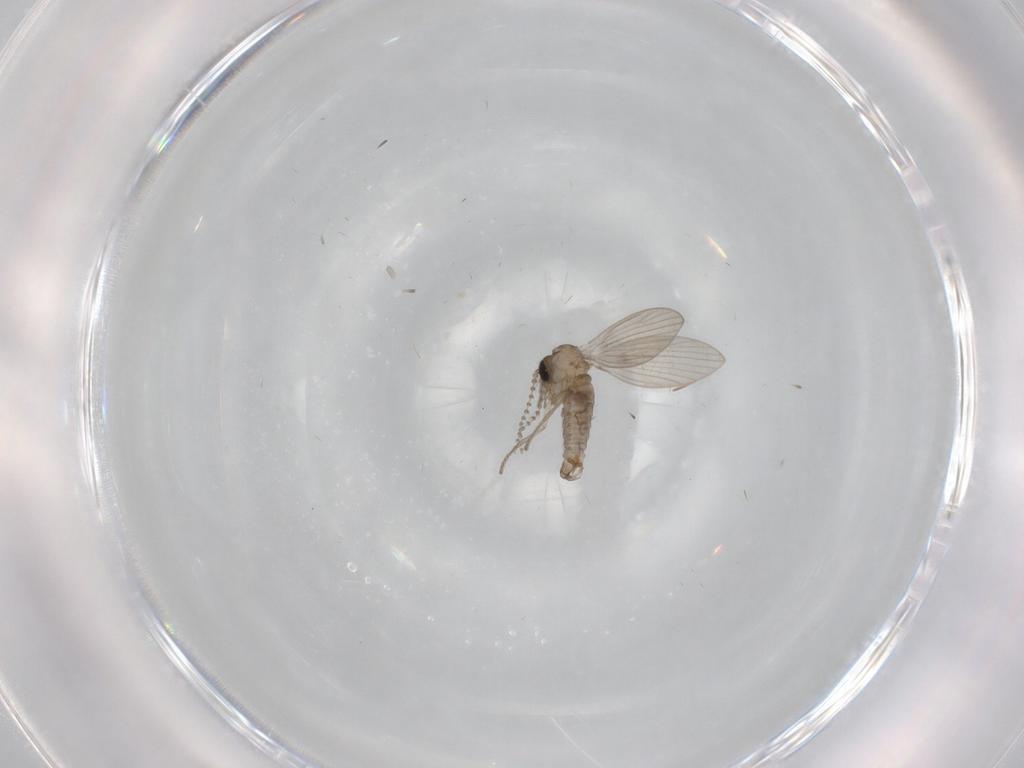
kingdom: Animalia
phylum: Arthropoda
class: Insecta
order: Diptera
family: Psychodidae
